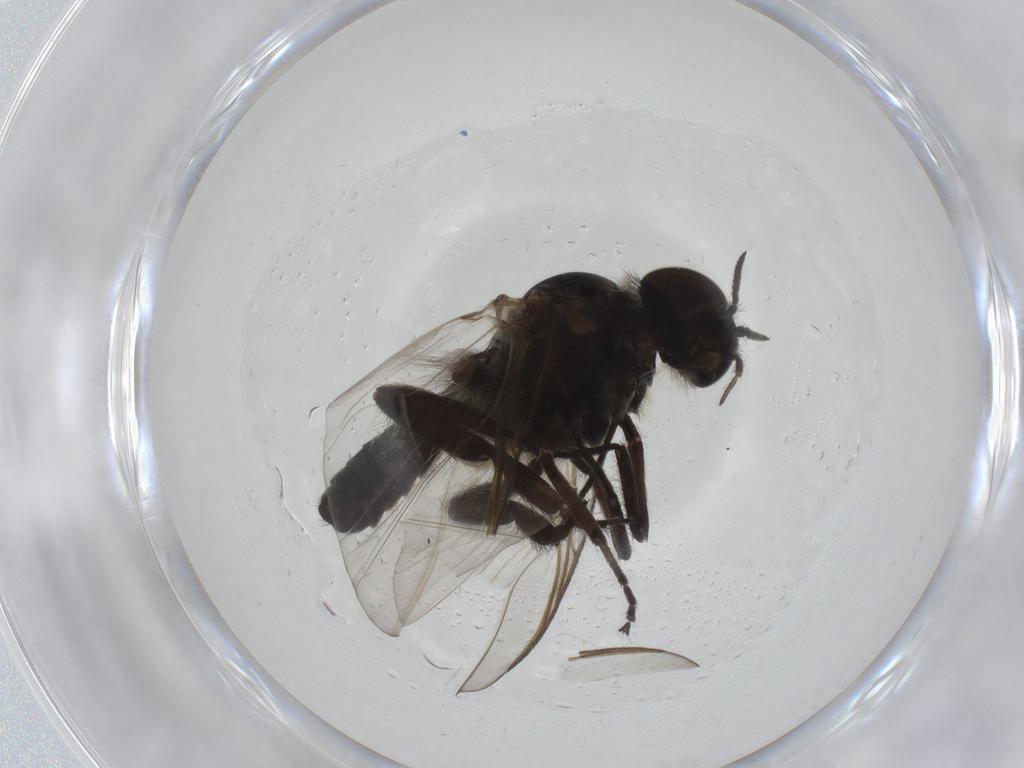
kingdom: Animalia
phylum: Arthropoda
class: Insecta
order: Diptera
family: Simuliidae
